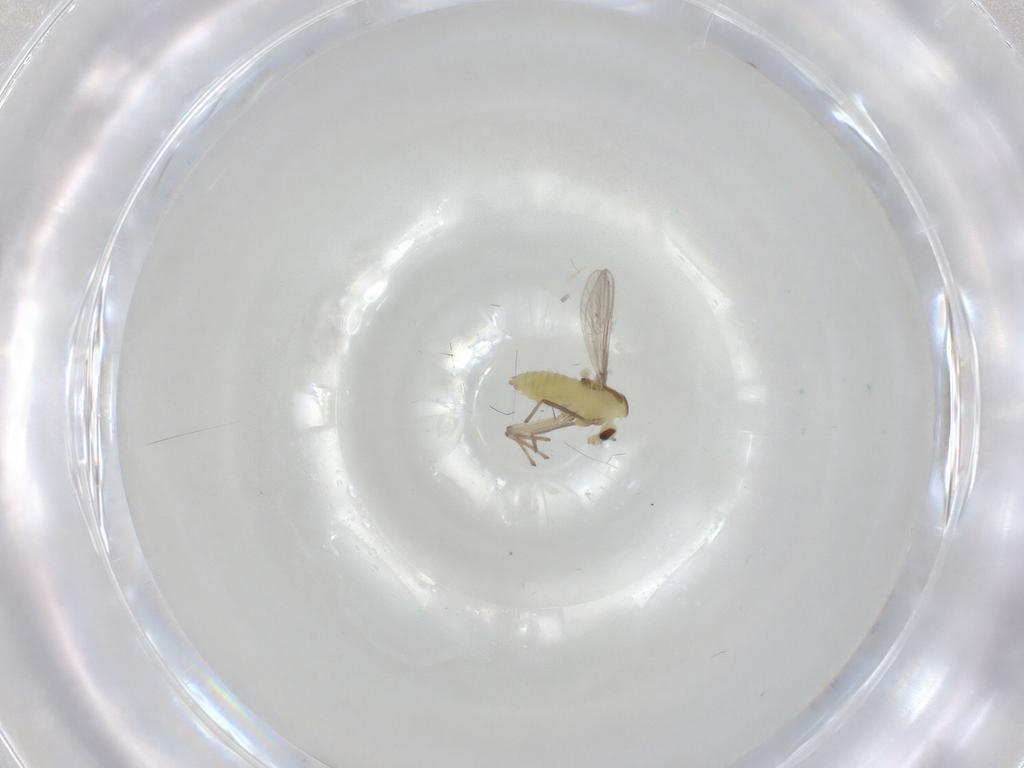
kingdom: Animalia
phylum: Arthropoda
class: Insecta
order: Diptera
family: Chironomidae
